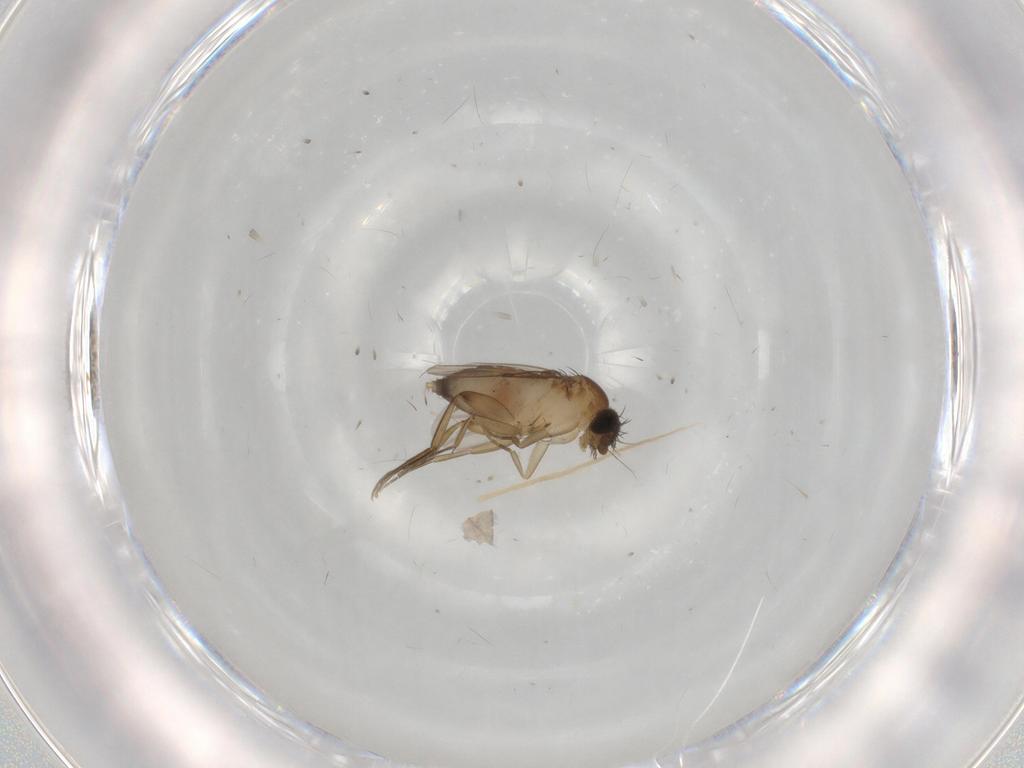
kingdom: Animalia
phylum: Arthropoda
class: Insecta
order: Diptera
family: Phoridae
